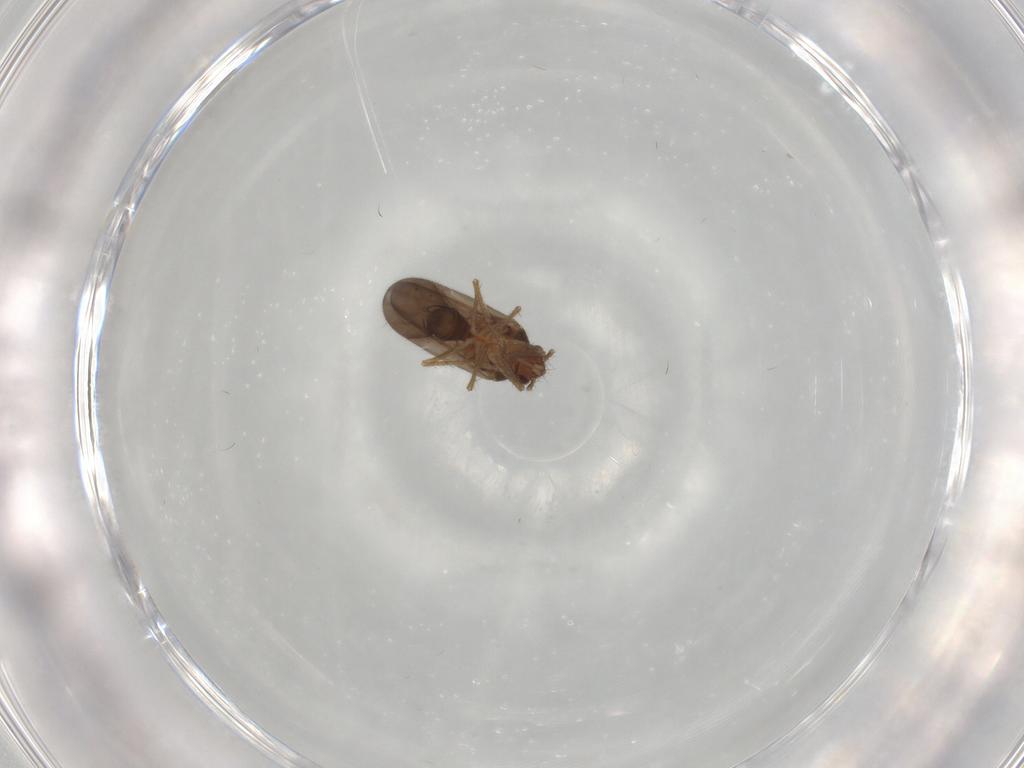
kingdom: Animalia
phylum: Arthropoda
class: Insecta
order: Hemiptera
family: Ceratocombidae
